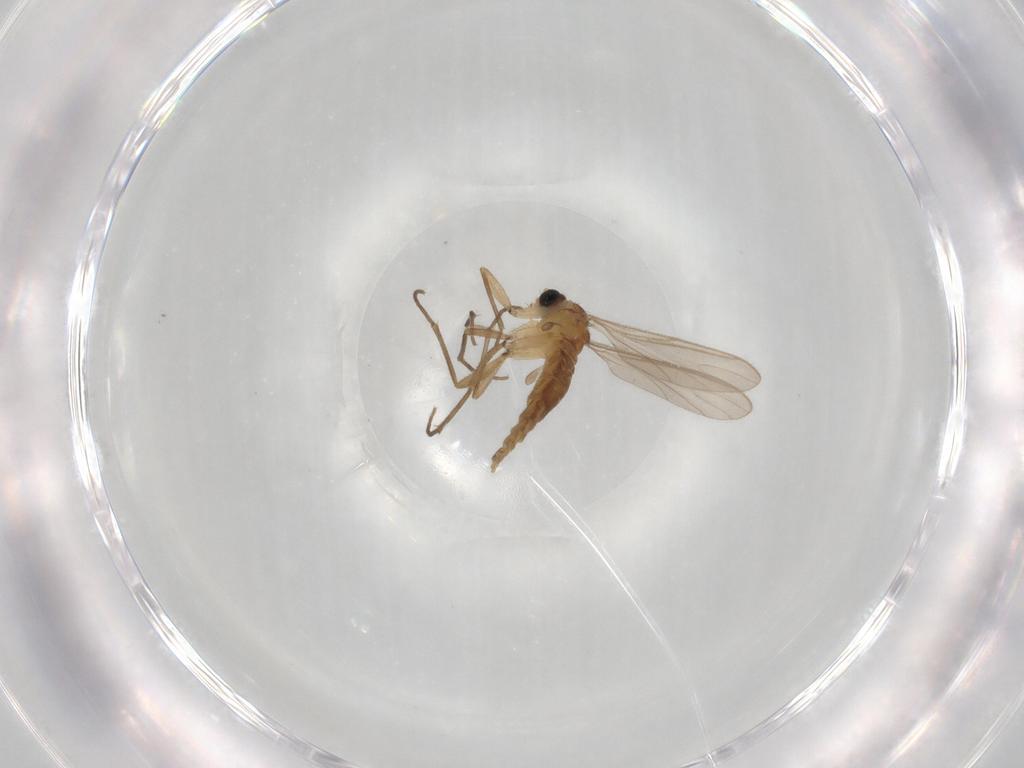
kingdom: Animalia
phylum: Arthropoda
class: Insecta
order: Diptera
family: Sciaridae
